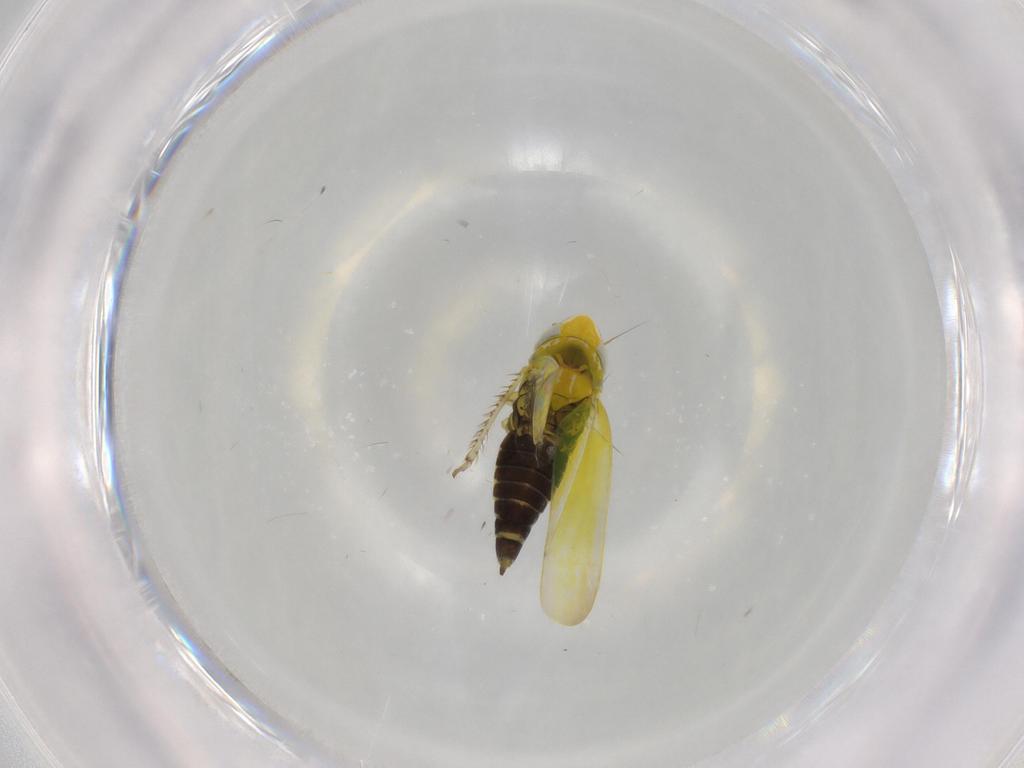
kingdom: Animalia
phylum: Arthropoda
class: Insecta
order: Hemiptera
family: Cicadellidae
